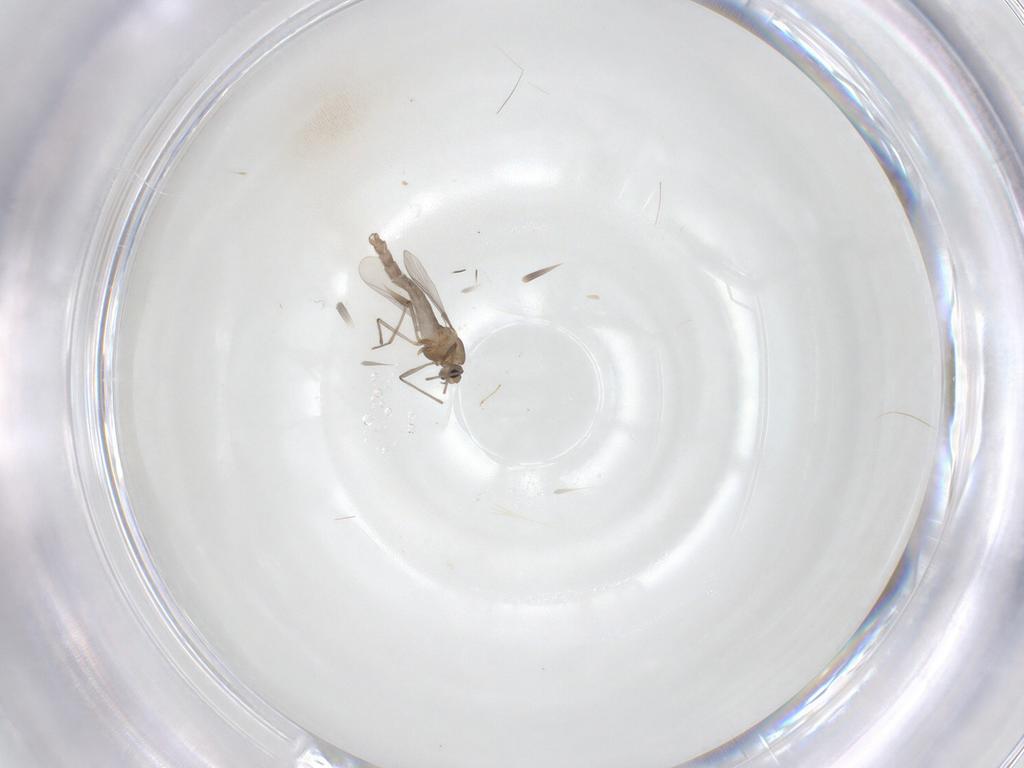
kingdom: Animalia
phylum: Arthropoda
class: Insecta
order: Diptera
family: Chironomidae
